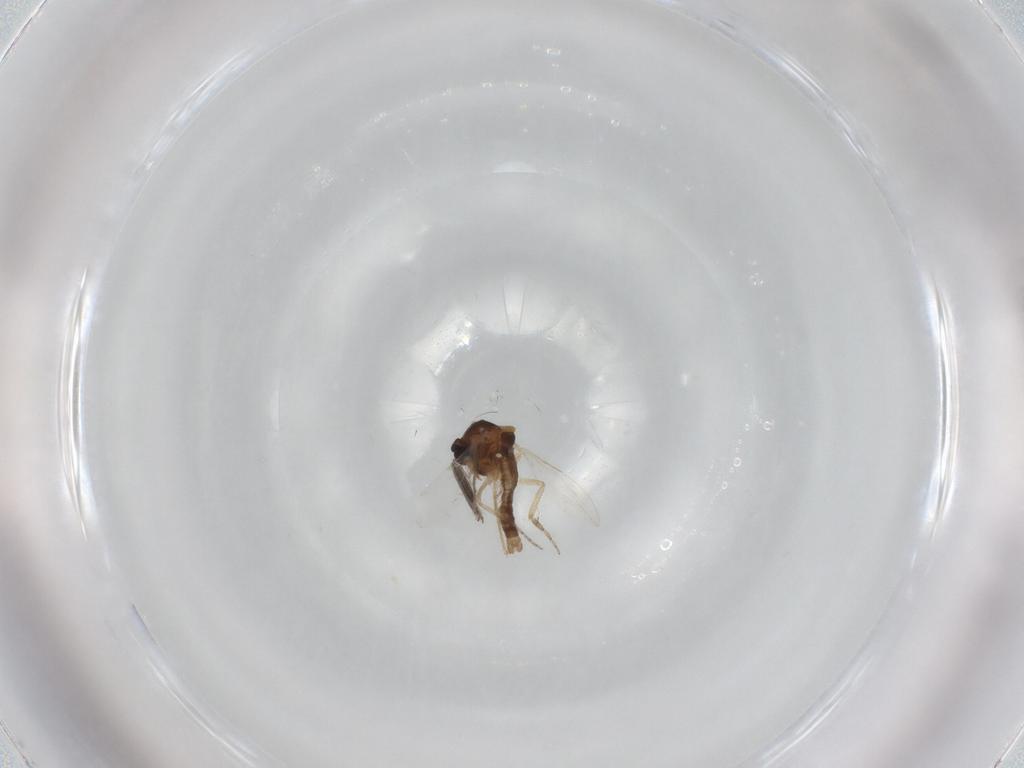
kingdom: Animalia
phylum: Arthropoda
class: Insecta
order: Diptera
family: Ceratopogonidae
